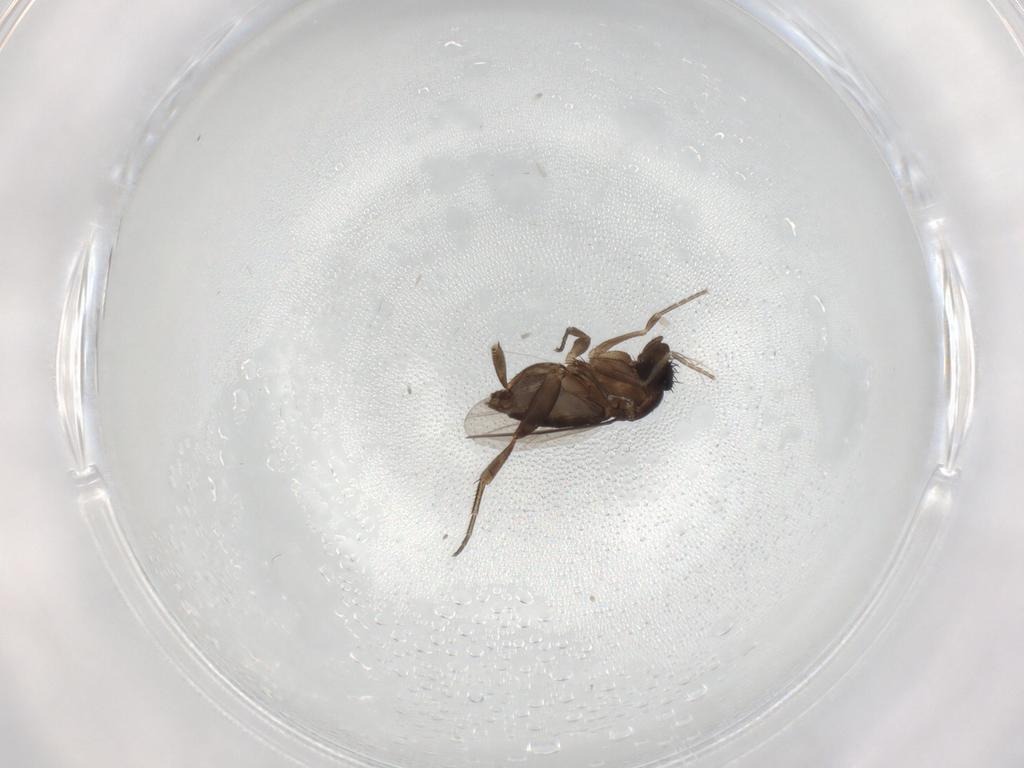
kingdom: Animalia
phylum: Arthropoda
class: Insecta
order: Diptera
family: Phoridae
